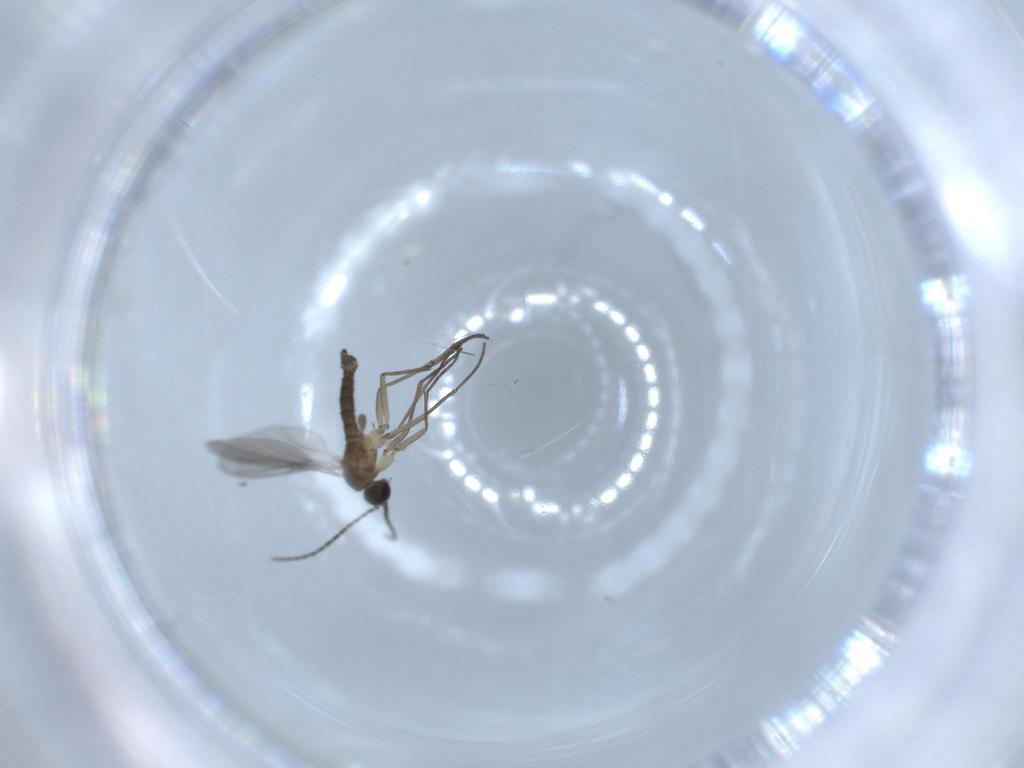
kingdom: Animalia
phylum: Arthropoda
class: Insecta
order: Diptera
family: Sciaridae
